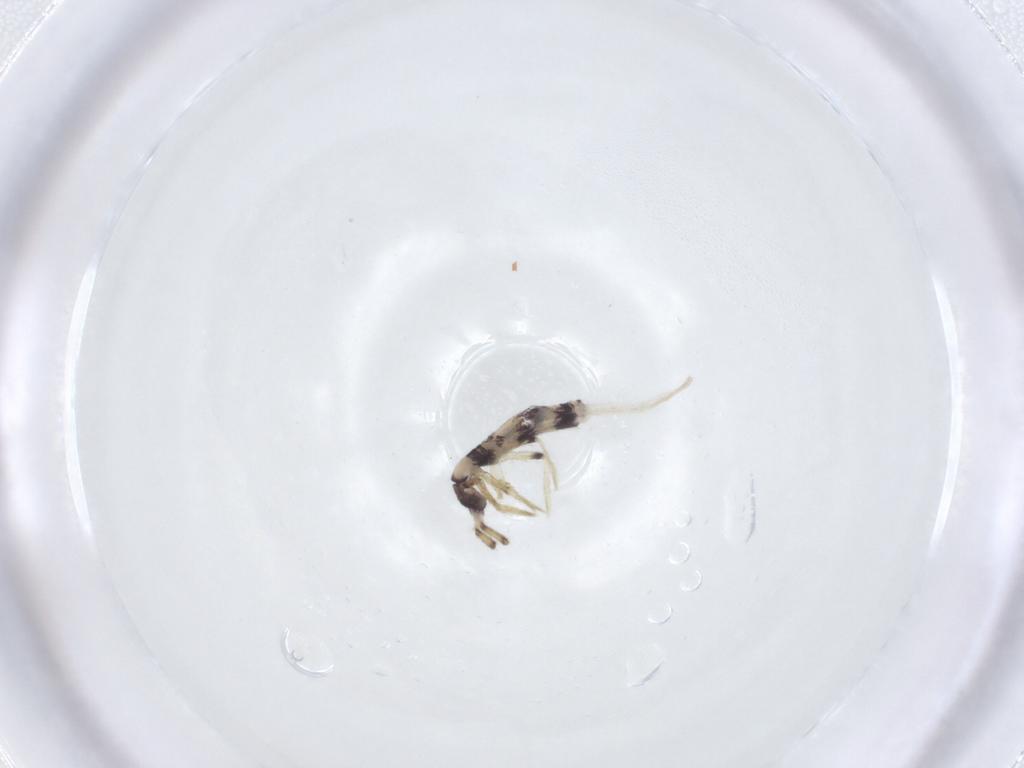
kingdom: Animalia
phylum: Arthropoda
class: Collembola
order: Entomobryomorpha
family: Entomobryidae
